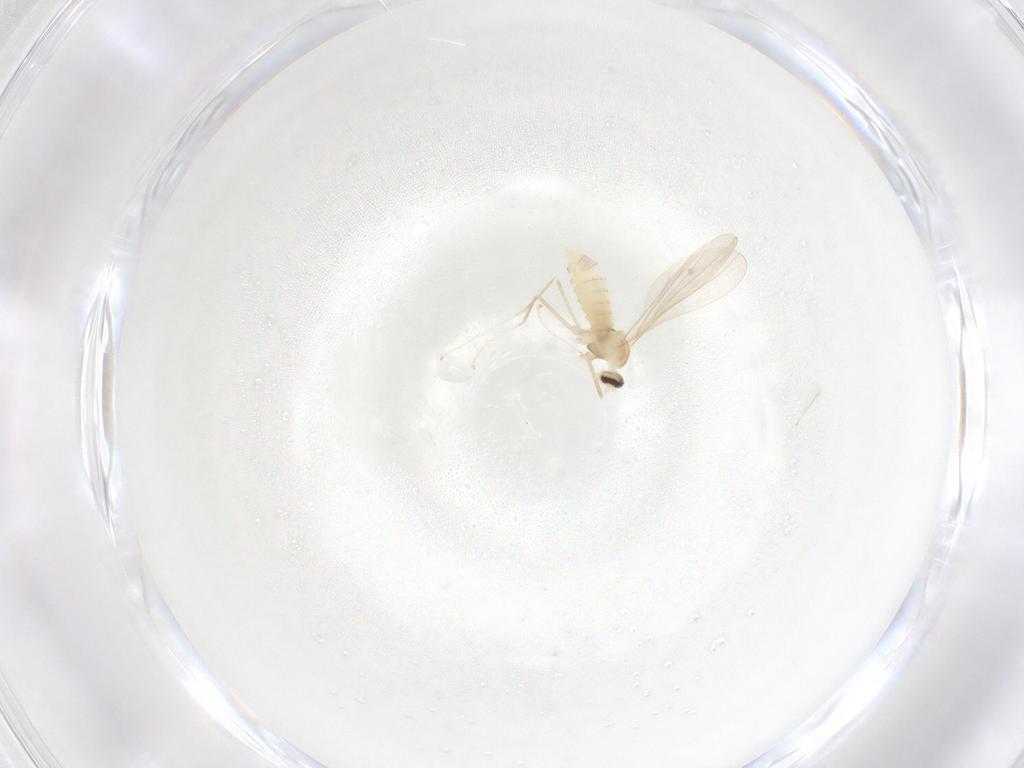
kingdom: Animalia
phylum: Arthropoda
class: Insecta
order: Diptera
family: Cecidomyiidae
